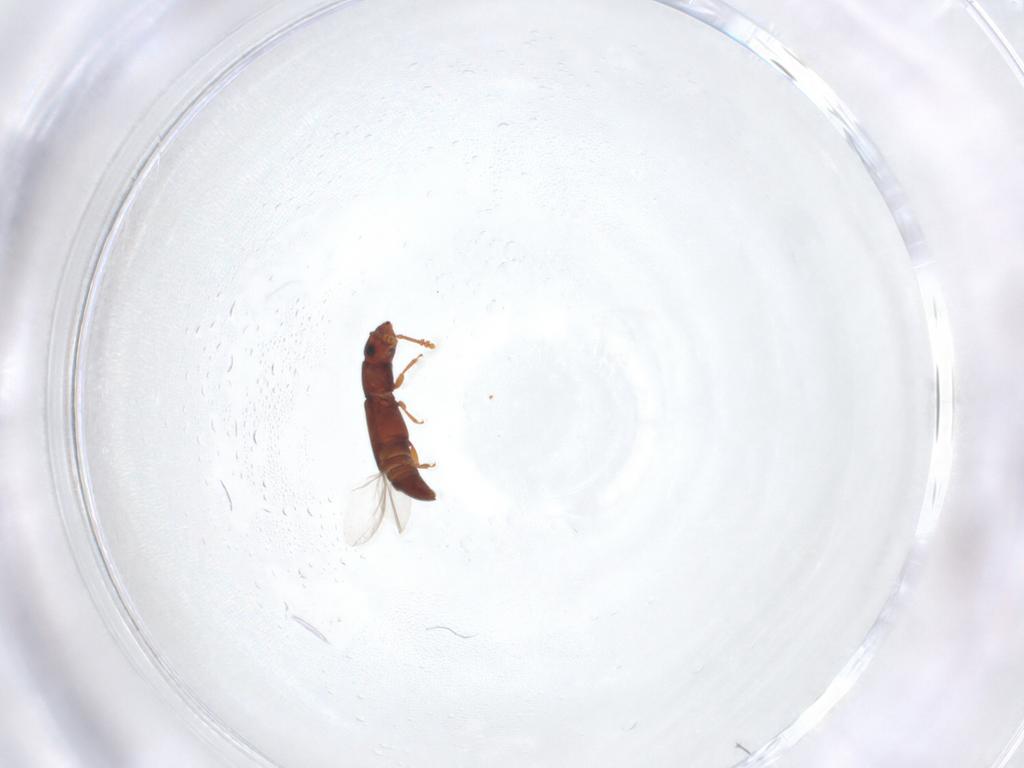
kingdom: Animalia
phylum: Arthropoda
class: Insecta
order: Coleoptera
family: Smicripidae
